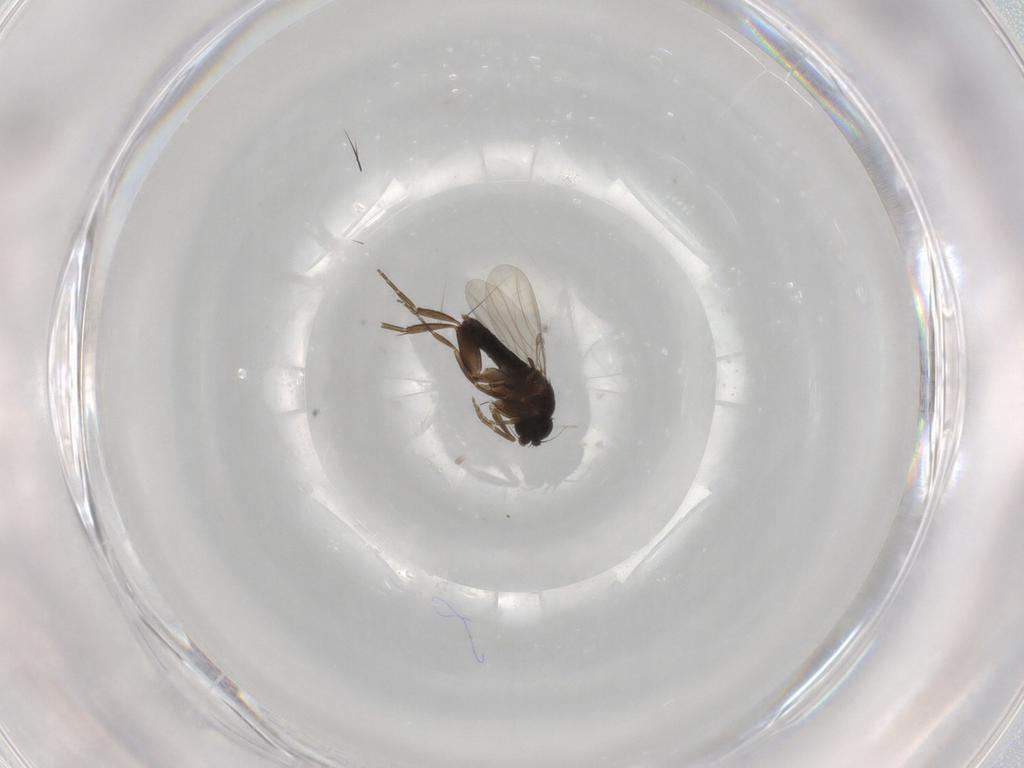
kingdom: Animalia
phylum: Arthropoda
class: Insecta
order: Diptera
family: Phoridae
